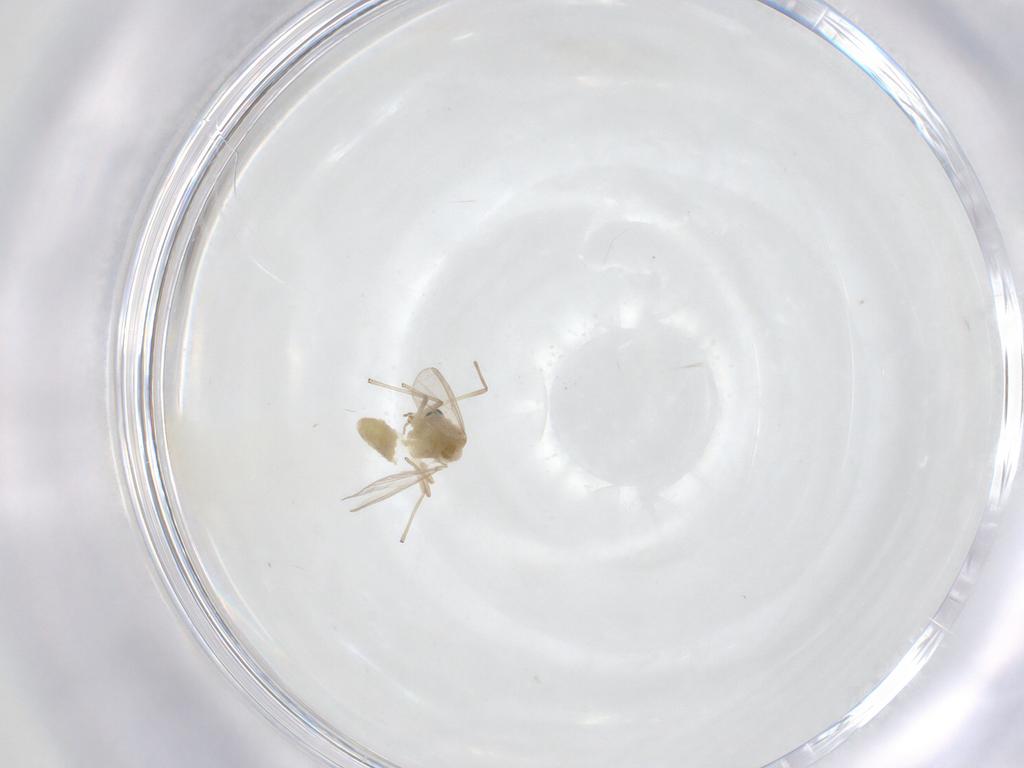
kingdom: Animalia
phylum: Arthropoda
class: Insecta
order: Diptera
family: Chironomidae
